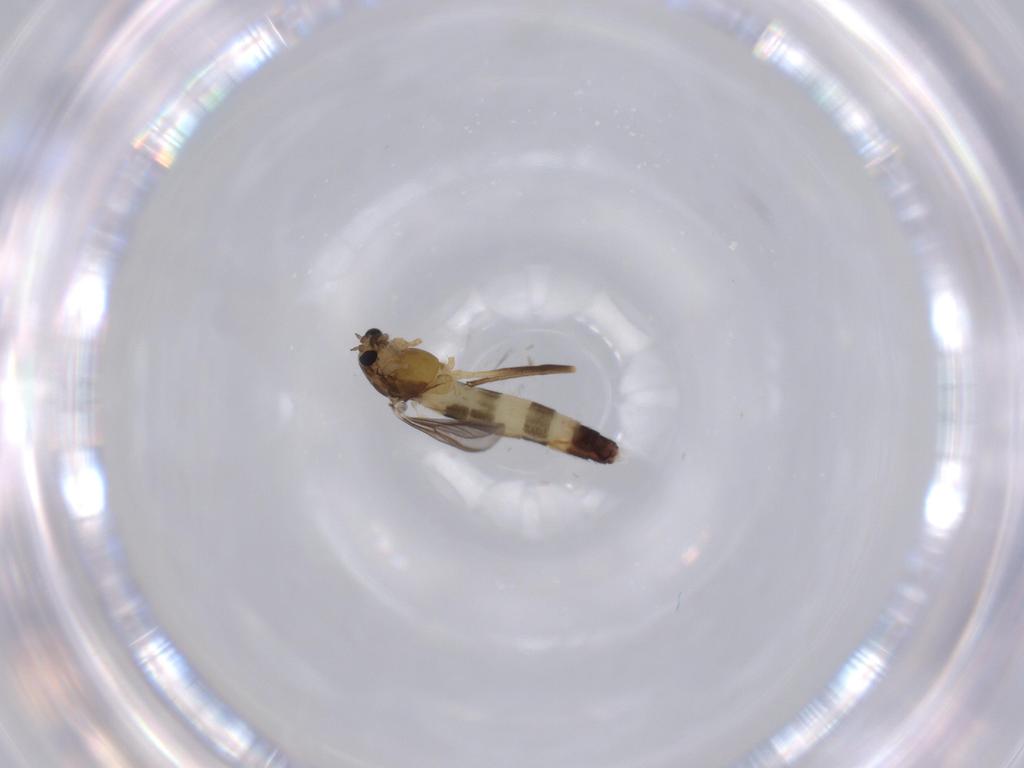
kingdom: Animalia
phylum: Arthropoda
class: Insecta
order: Diptera
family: Chironomidae
